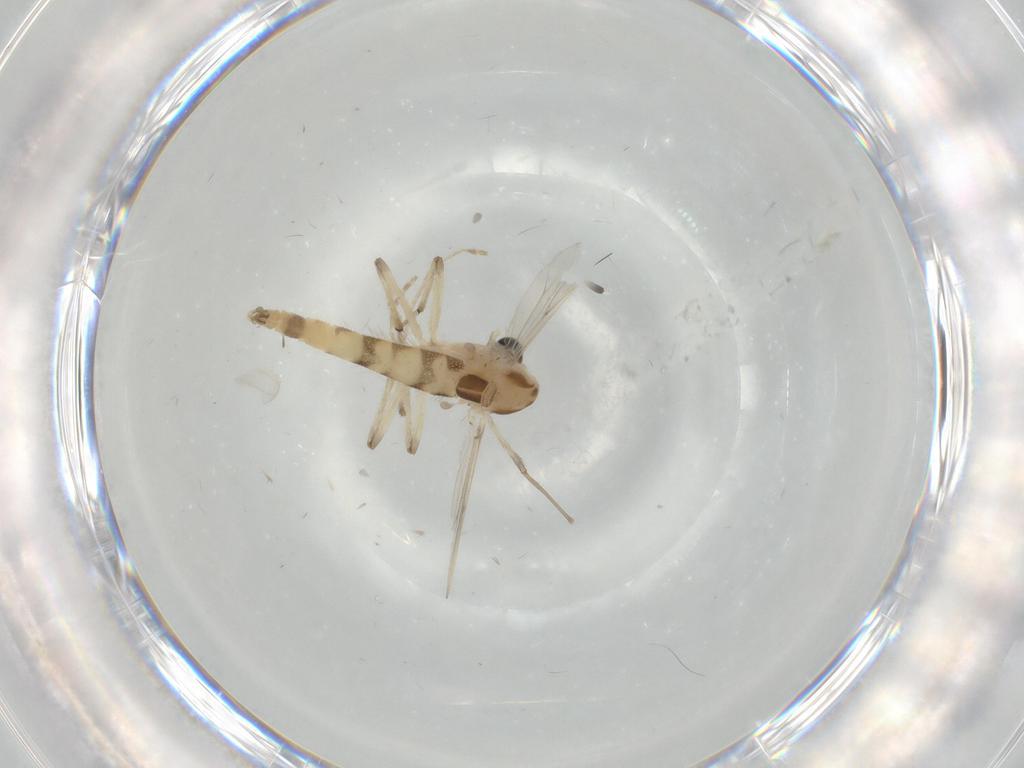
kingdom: Animalia
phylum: Arthropoda
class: Insecta
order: Diptera
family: Chironomidae
